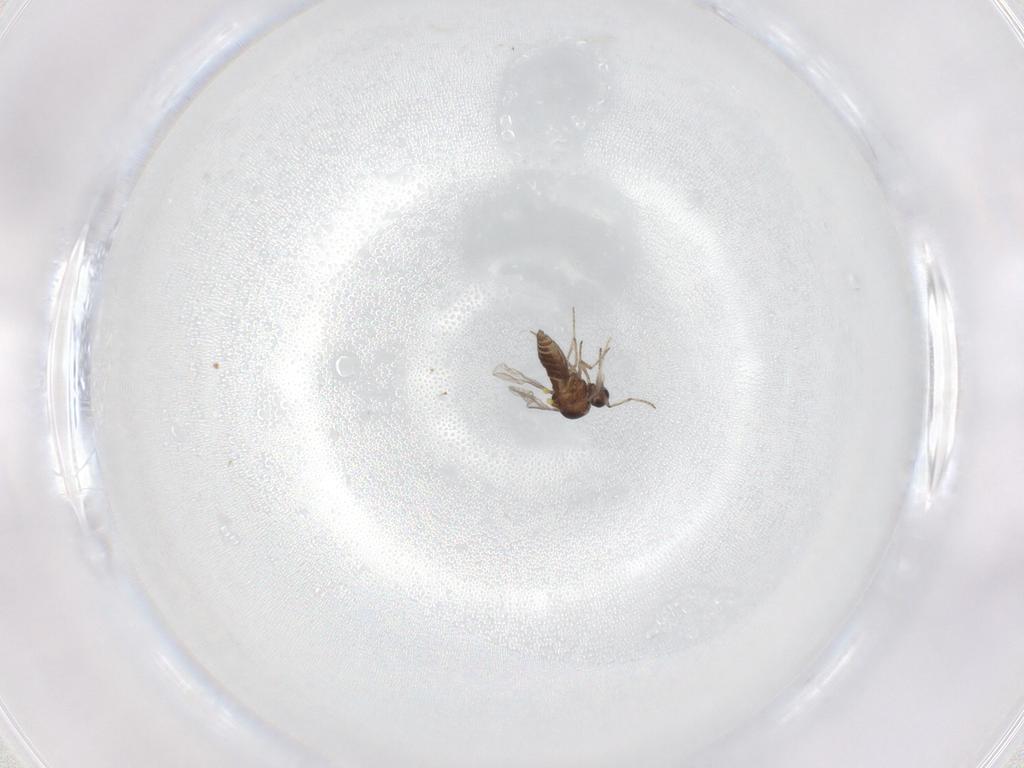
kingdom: Animalia
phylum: Arthropoda
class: Insecta
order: Diptera
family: Ceratopogonidae
